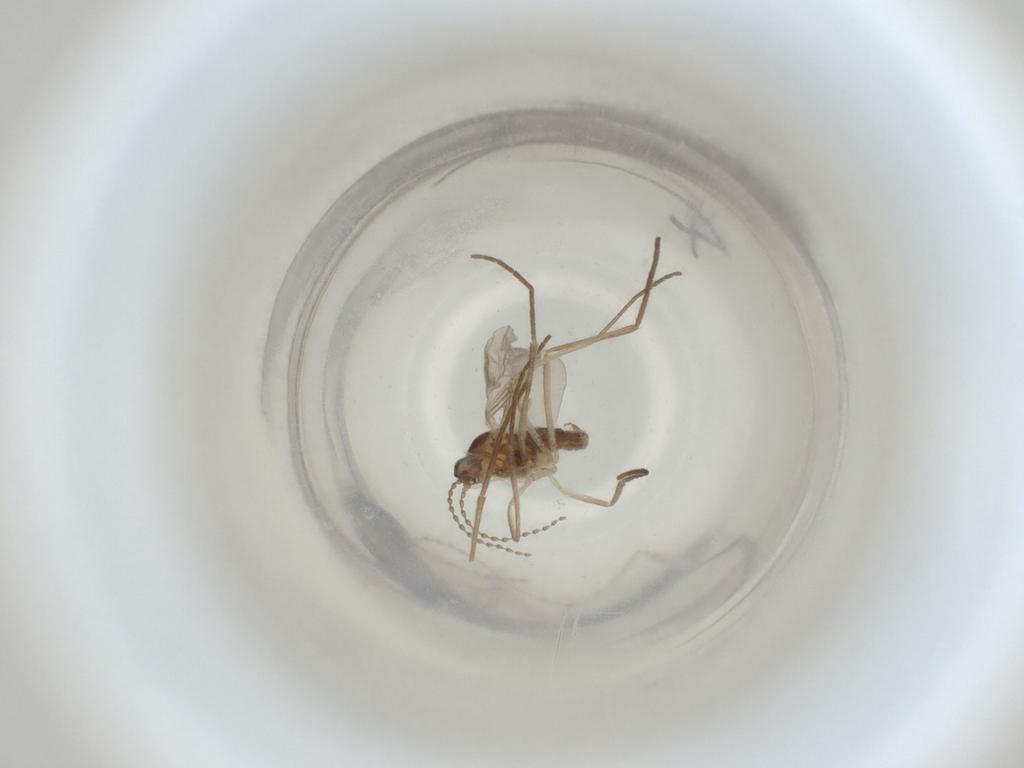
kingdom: Animalia
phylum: Arthropoda
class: Insecta
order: Diptera
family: Cecidomyiidae
